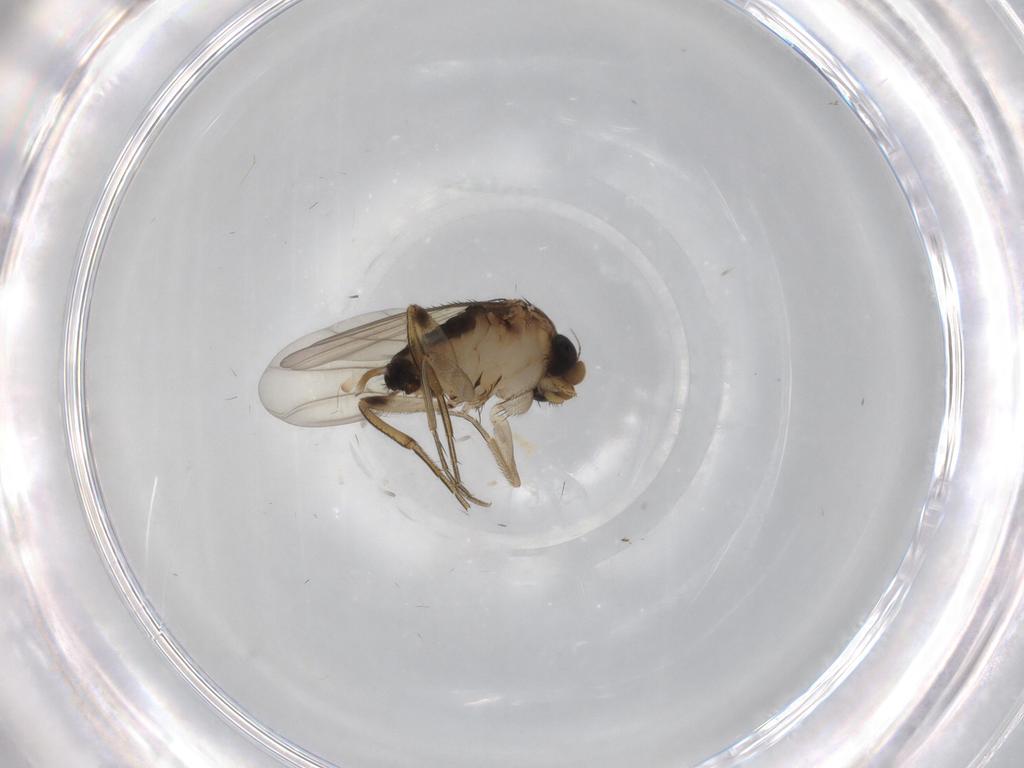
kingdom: Animalia
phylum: Arthropoda
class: Insecta
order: Diptera
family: Phoridae
